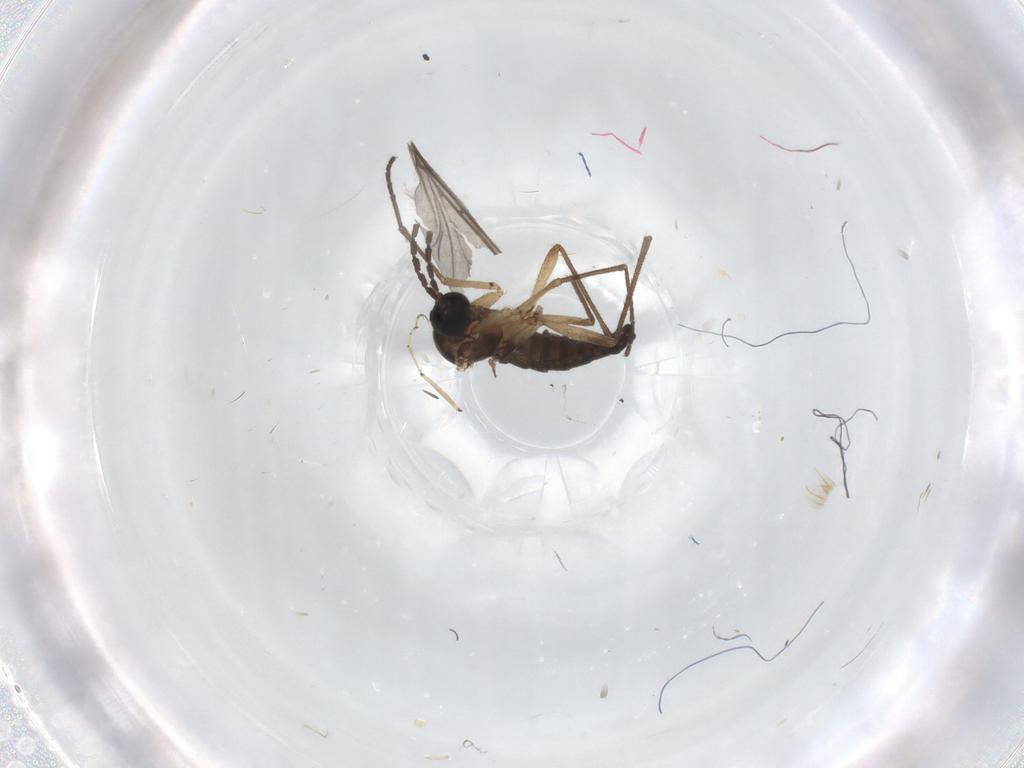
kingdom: Animalia
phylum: Arthropoda
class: Insecta
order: Diptera
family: Sciaridae
